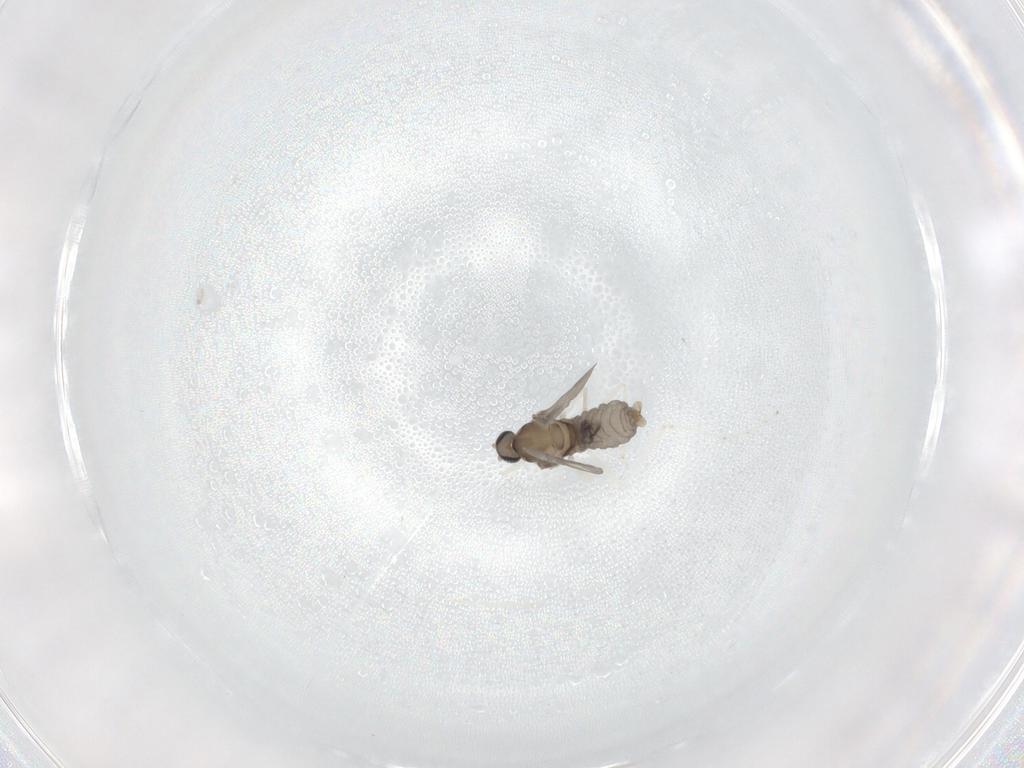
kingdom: Animalia
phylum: Arthropoda
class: Insecta
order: Diptera
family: Cecidomyiidae
